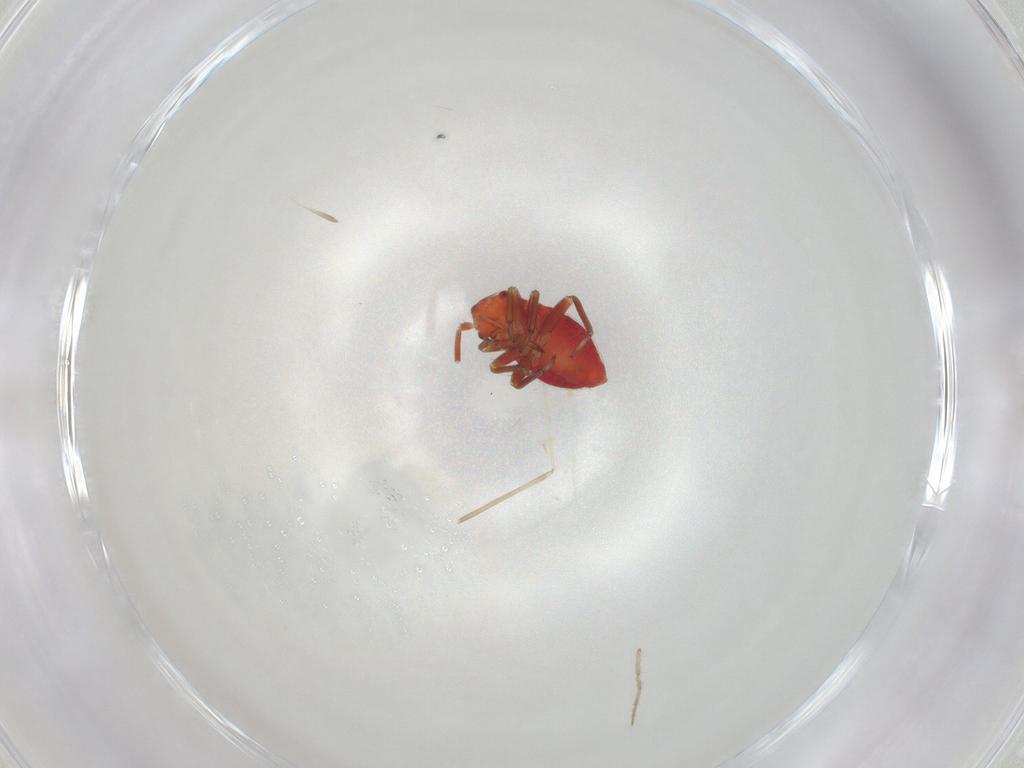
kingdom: Animalia
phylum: Arthropoda
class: Insecta
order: Hemiptera
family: Miridae
